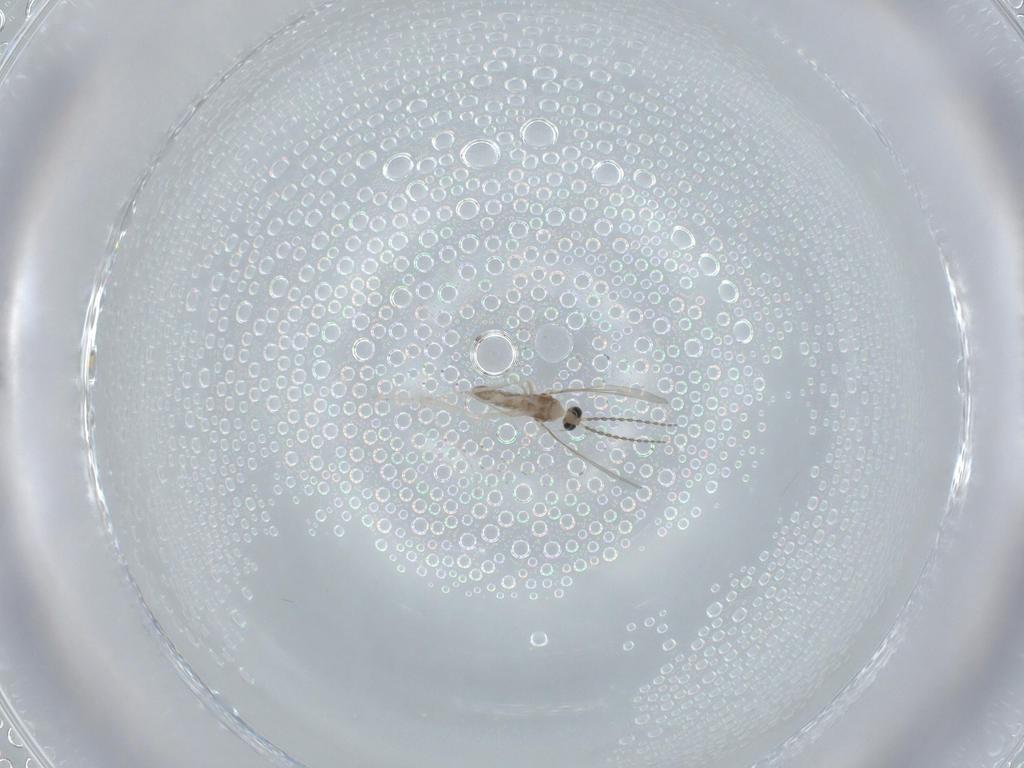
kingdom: Animalia
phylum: Arthropoda
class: Insecta
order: Diptera
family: Cecidomyiidae
